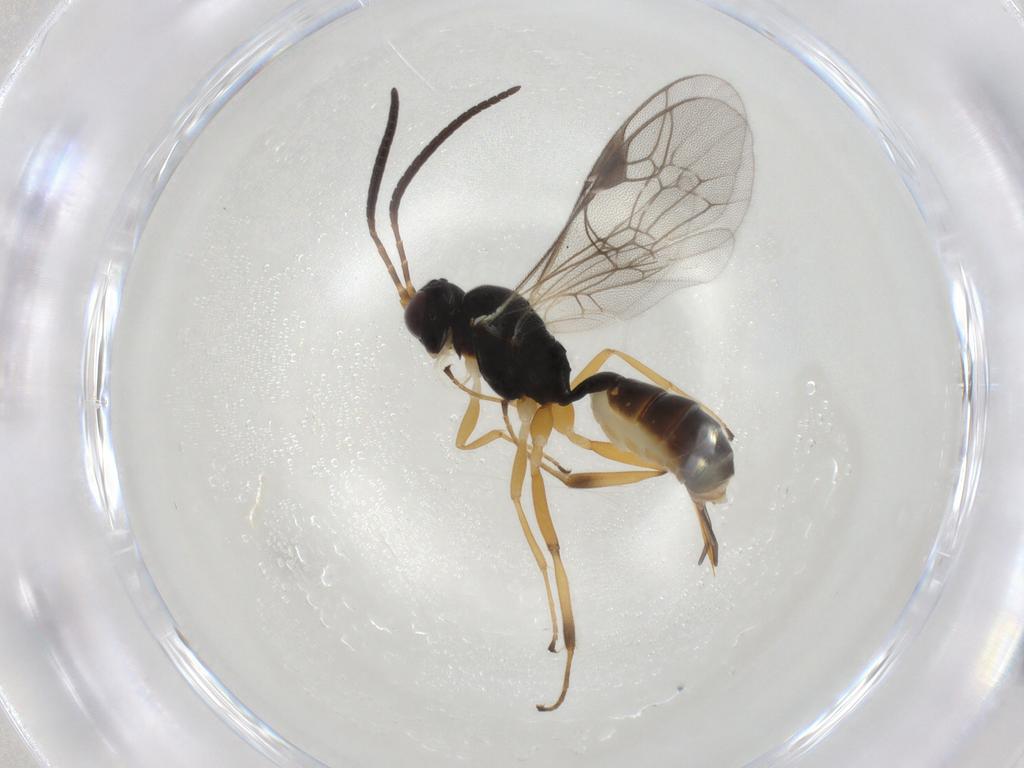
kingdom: Animalia
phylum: Arthropoda
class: Insecta
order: Hymenoptera
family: Ichneumonidae
